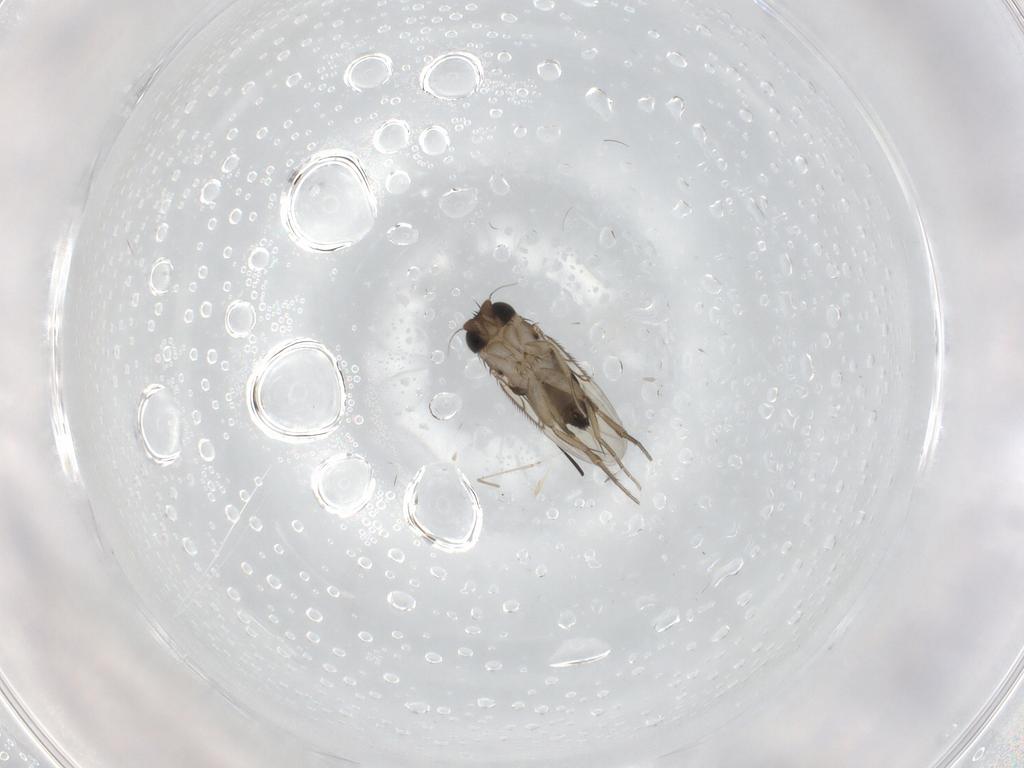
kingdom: Animalia
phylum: Arthropoda
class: Insecta
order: Diptera
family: Phoridae
